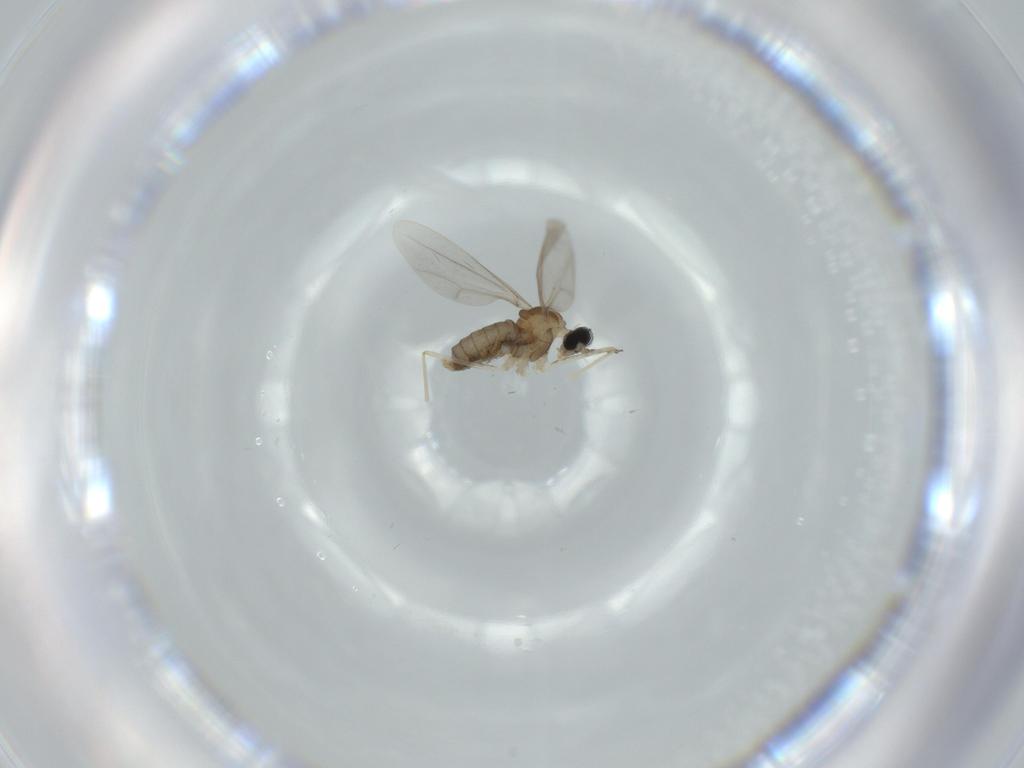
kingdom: Animalia
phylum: Arthropoda
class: Insecta
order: Diptera
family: Cecidomyiidae
